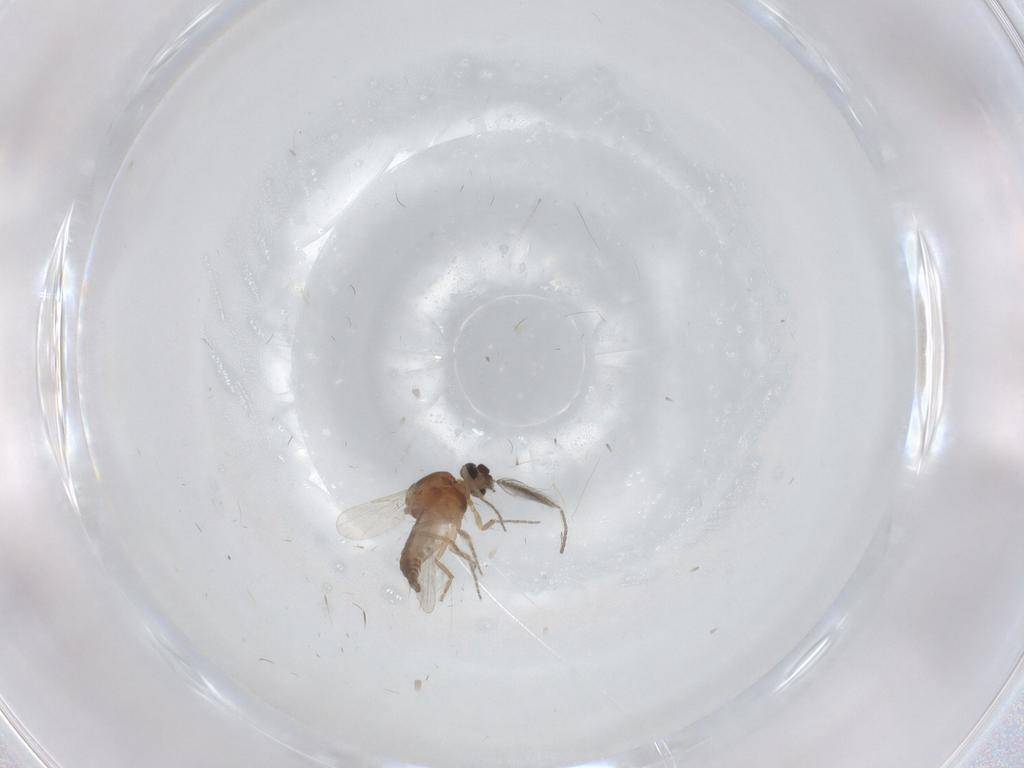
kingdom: Animalia
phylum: Arthropoda
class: Insecta
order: Diptera
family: Ceratopogonidae
